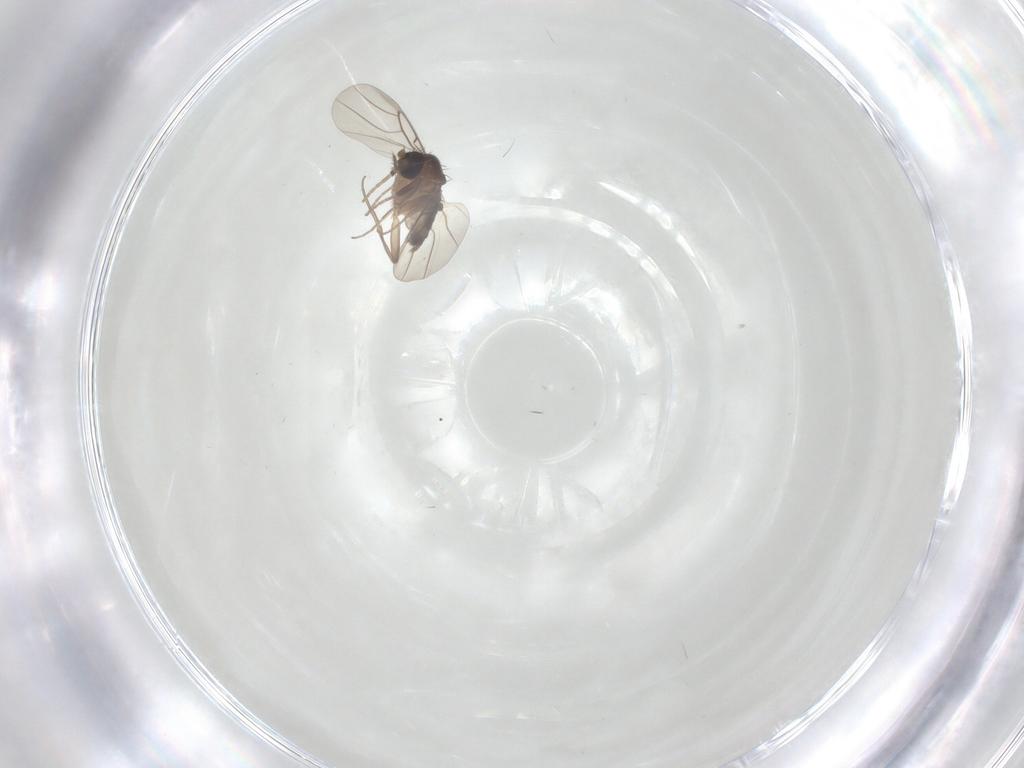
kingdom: Animalia
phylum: Arthropoda
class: Insecta
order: Diptera
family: Phoridae
